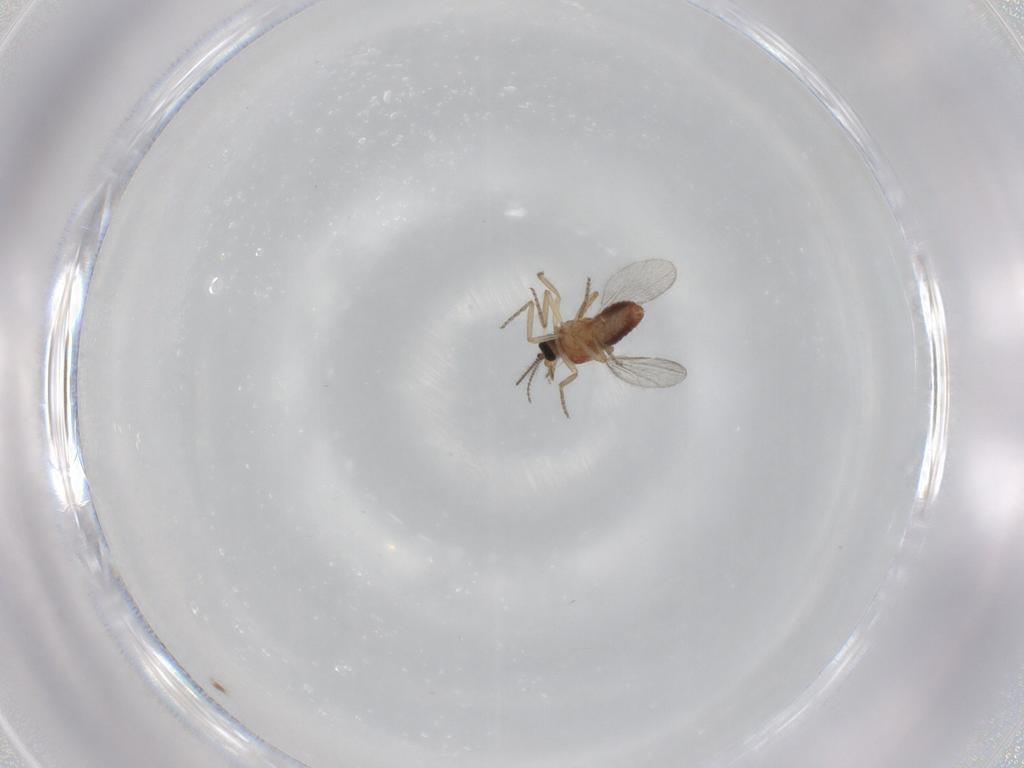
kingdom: Animalia
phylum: Arthropoda
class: Insecta
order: Diptera
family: Ceratopogonidae
